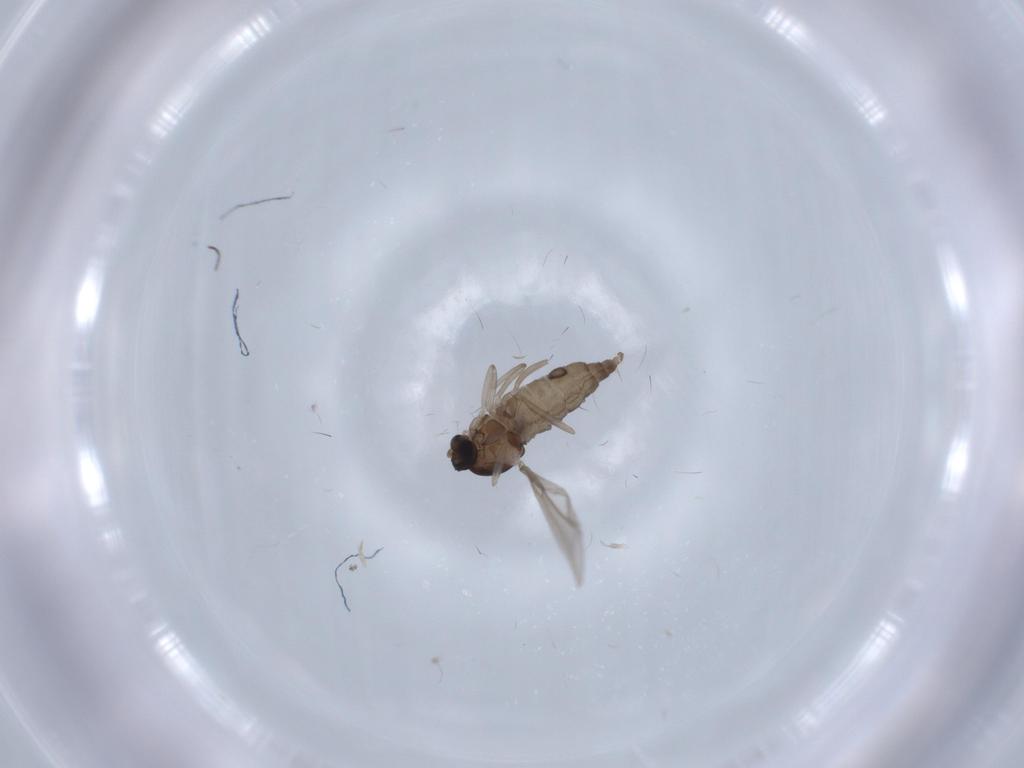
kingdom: Animalia
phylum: Arthropoda
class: Insecta
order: Diptera
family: Cecidomyiidae
